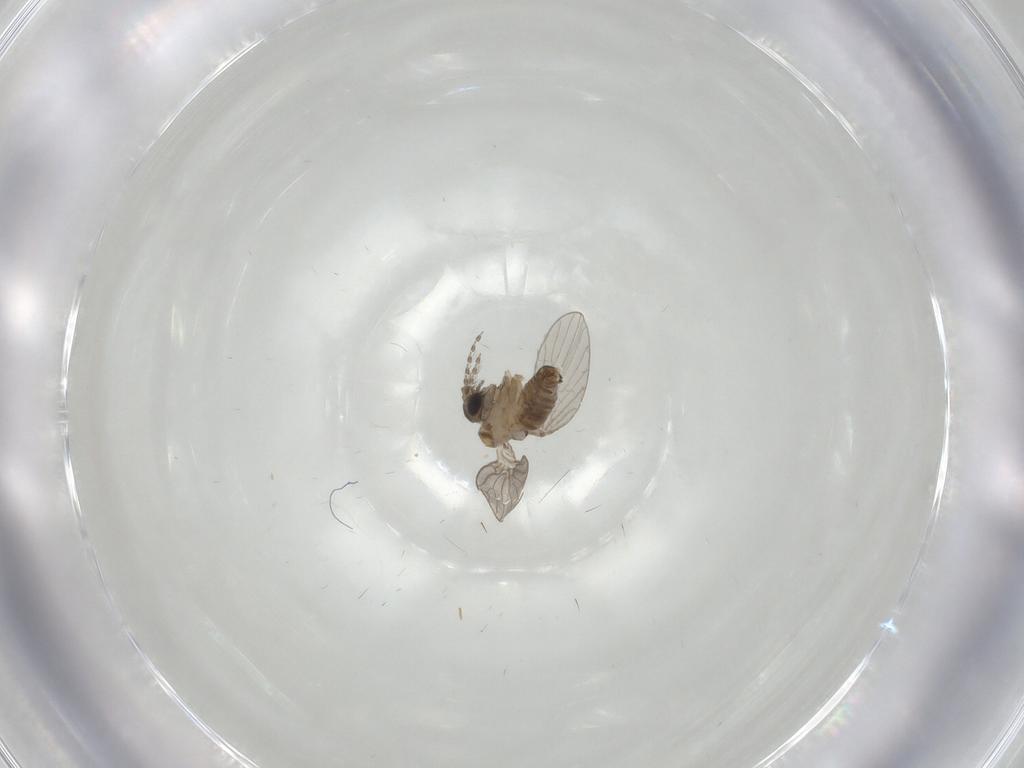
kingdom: Animalia
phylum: Arthropoda
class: Insecta
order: Diptera
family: Psychodidae
